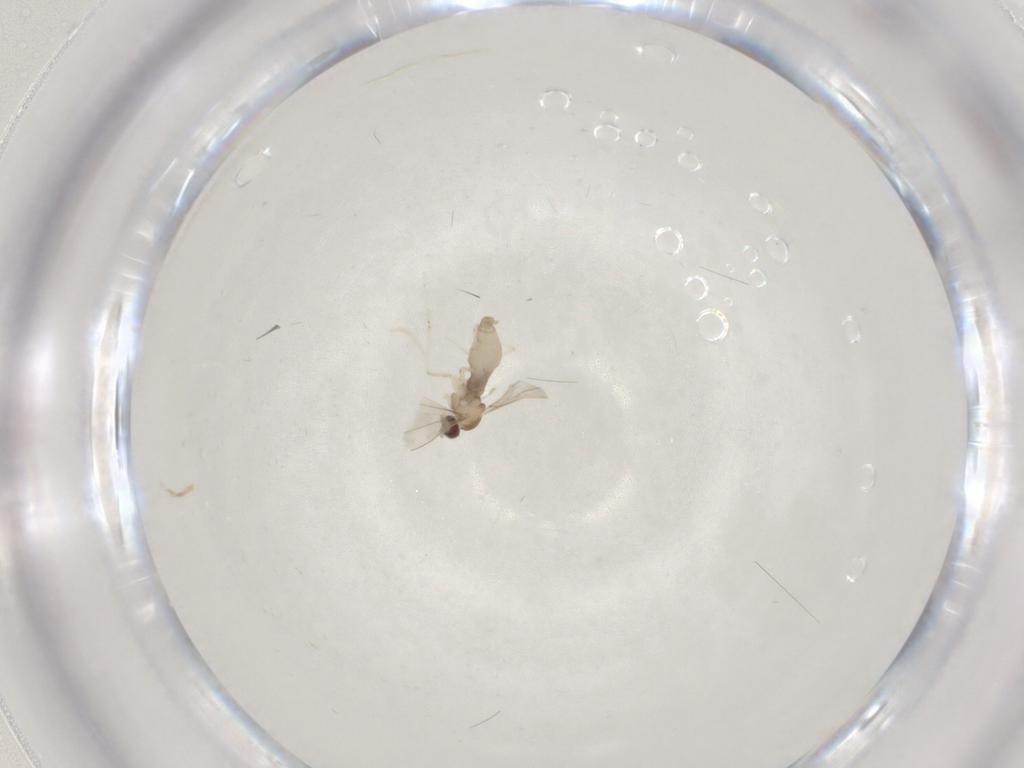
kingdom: Animalia
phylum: Arthropoda
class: Insecta
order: Diptera
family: Cecidomyiidae
